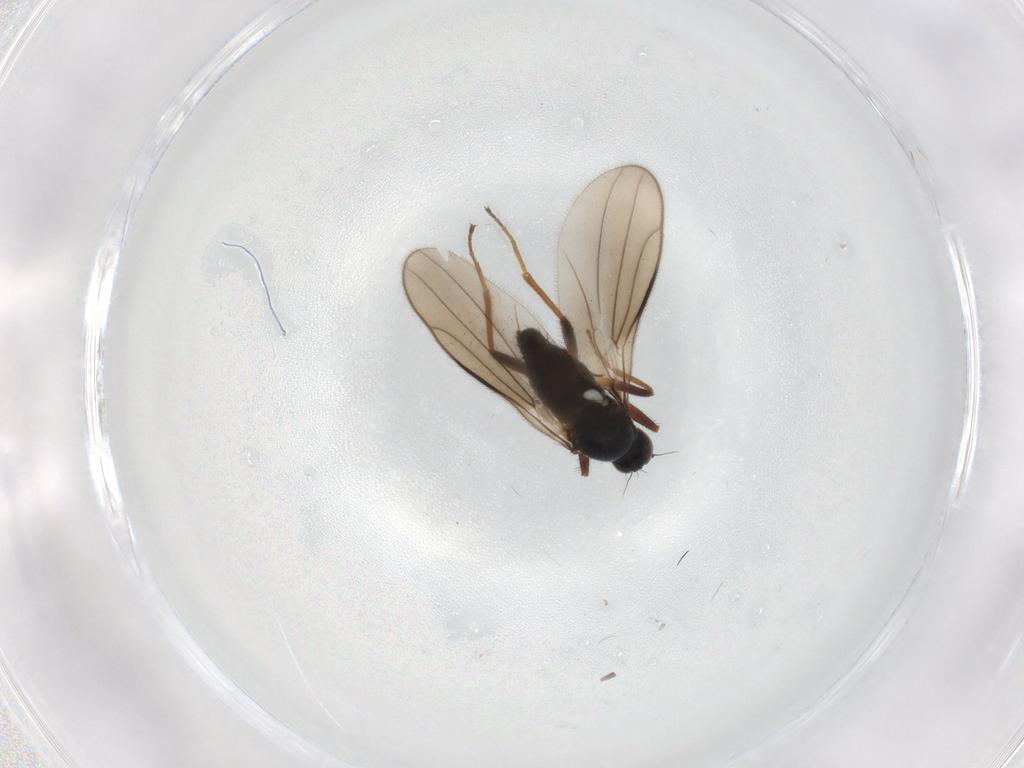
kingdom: Animalia
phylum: Arthropoda
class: Insecta
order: Diptera
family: Hybotidae
